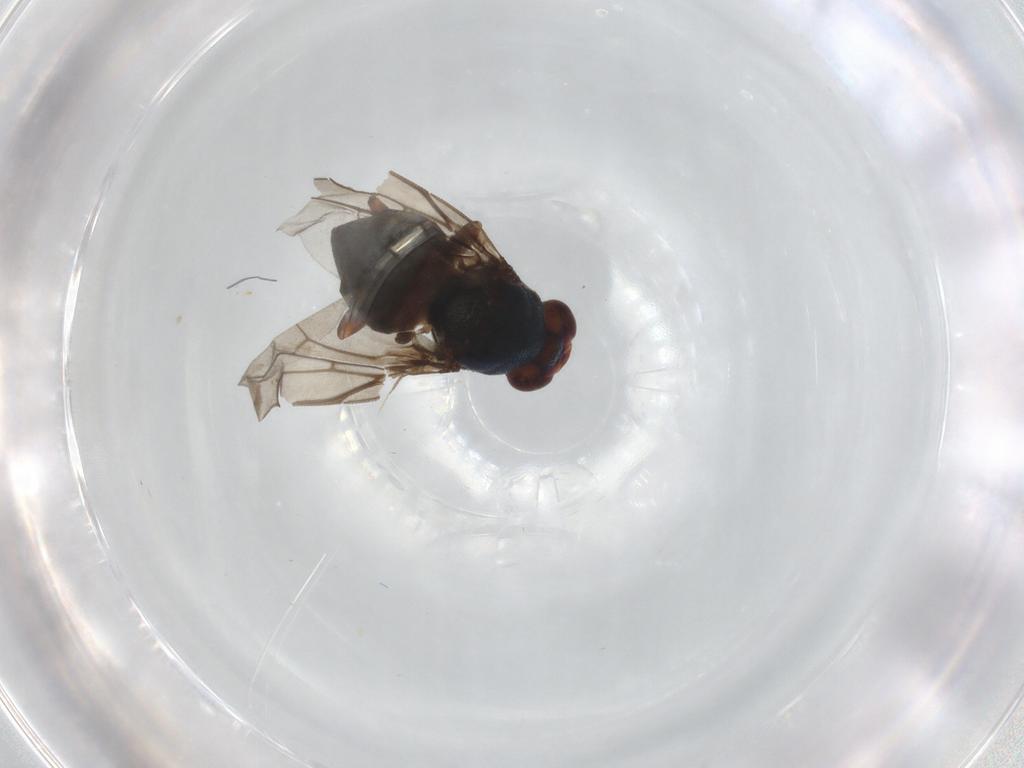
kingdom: Animalia
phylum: Arthropoda
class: Insecta
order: Diptera
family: Chloropidae
